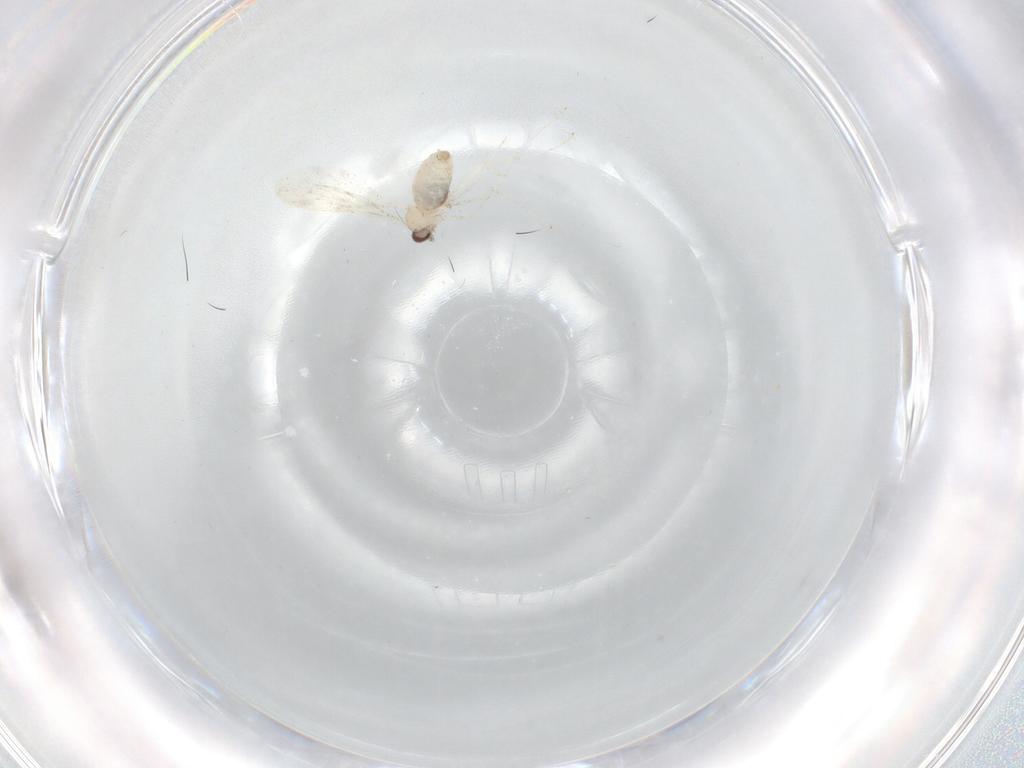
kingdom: Animalia
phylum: Arthropoda
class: Insecta
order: Diptera
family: Cecidomyiidae
